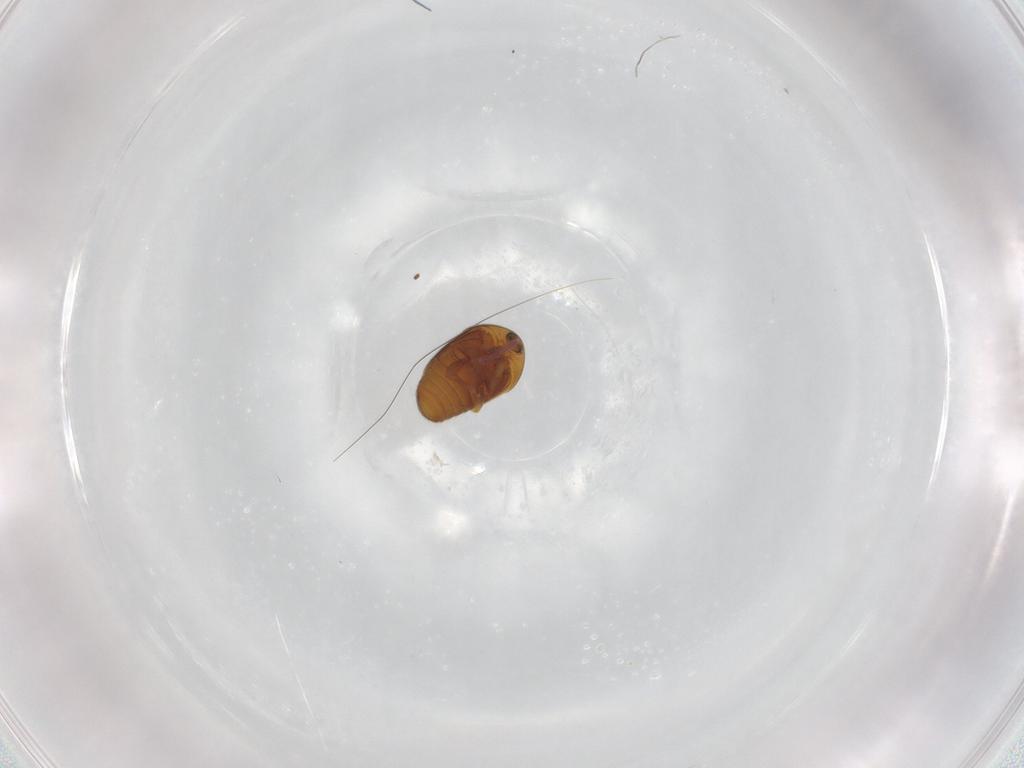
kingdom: Animalia
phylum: Arthropoda
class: Insecta
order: Coleoptera
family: Corylophidae
